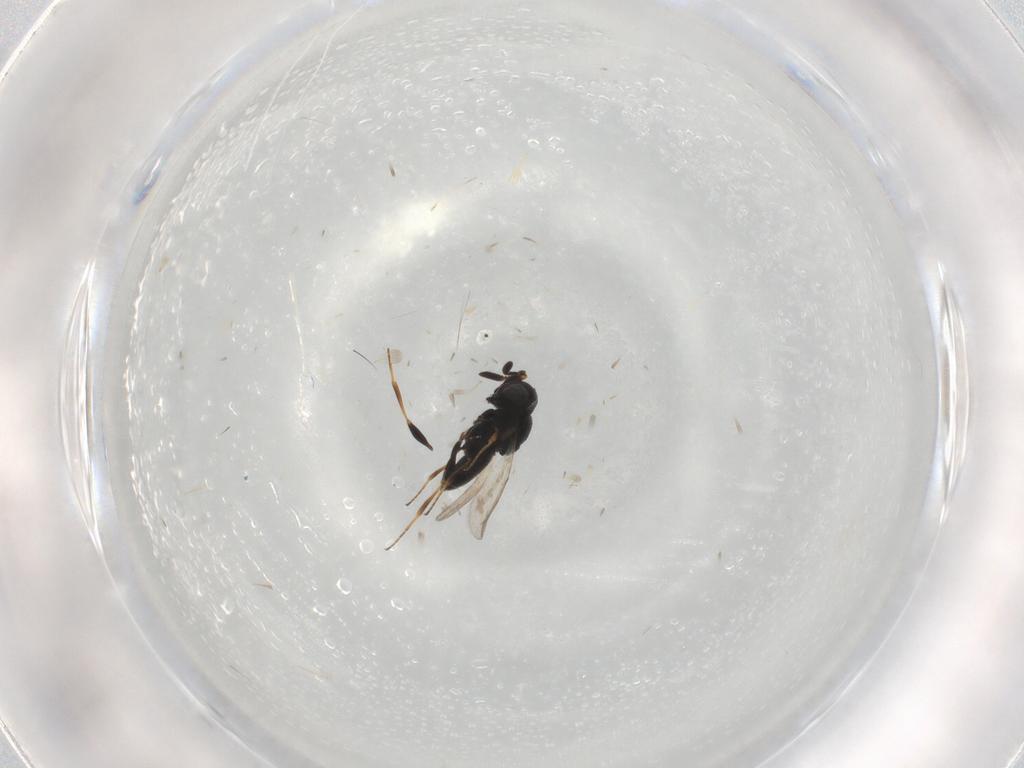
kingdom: Animalia
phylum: Arthropoda
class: Insecta
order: Hymenoptera
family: Scelionidae
